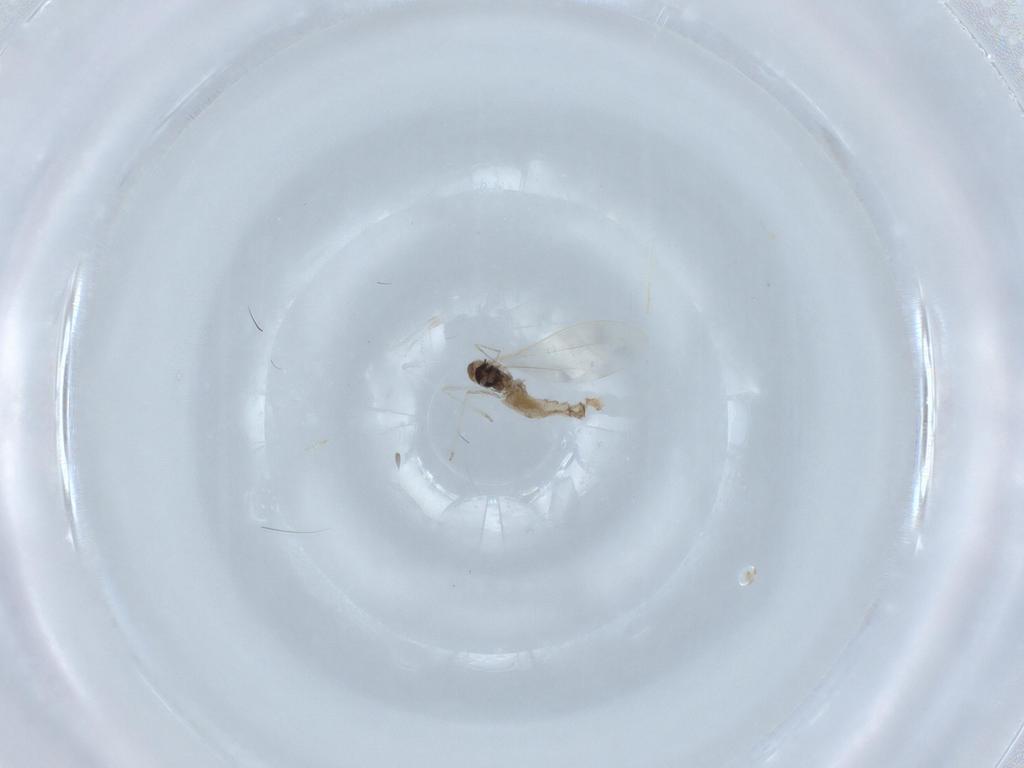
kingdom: Animalia
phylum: Arthropoda
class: Insecta
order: Diptera
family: Cecidomyiidae
